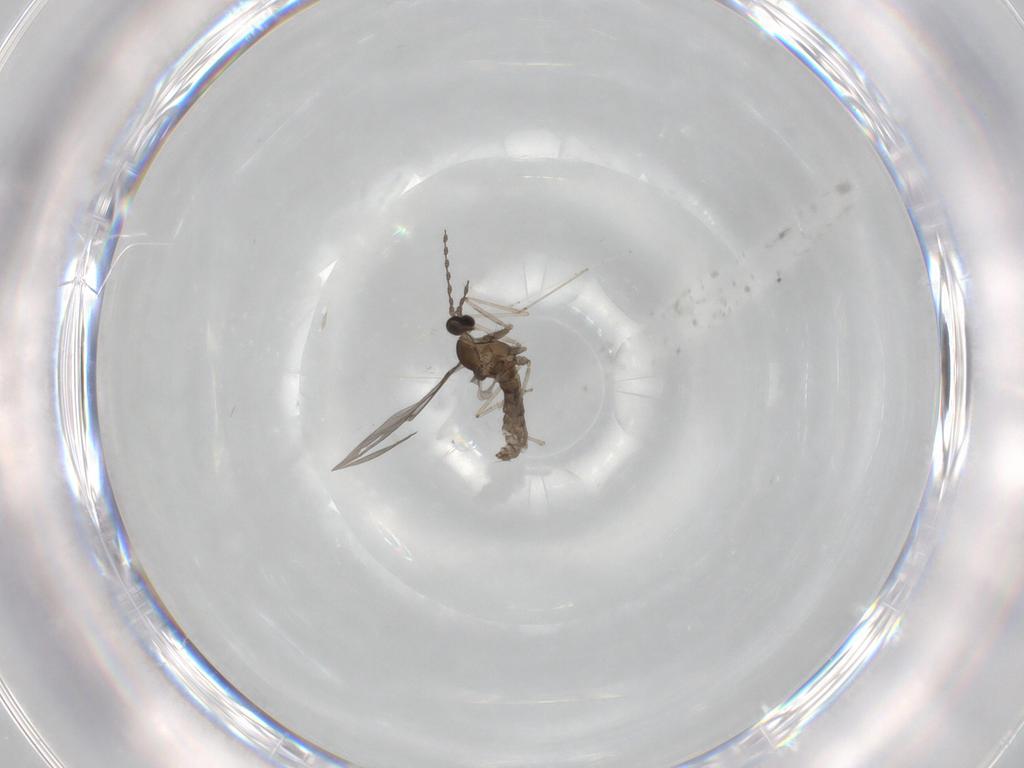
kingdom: Animalia
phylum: Arthropoda
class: Insecta
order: Diptera
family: Cecidomyiidae
